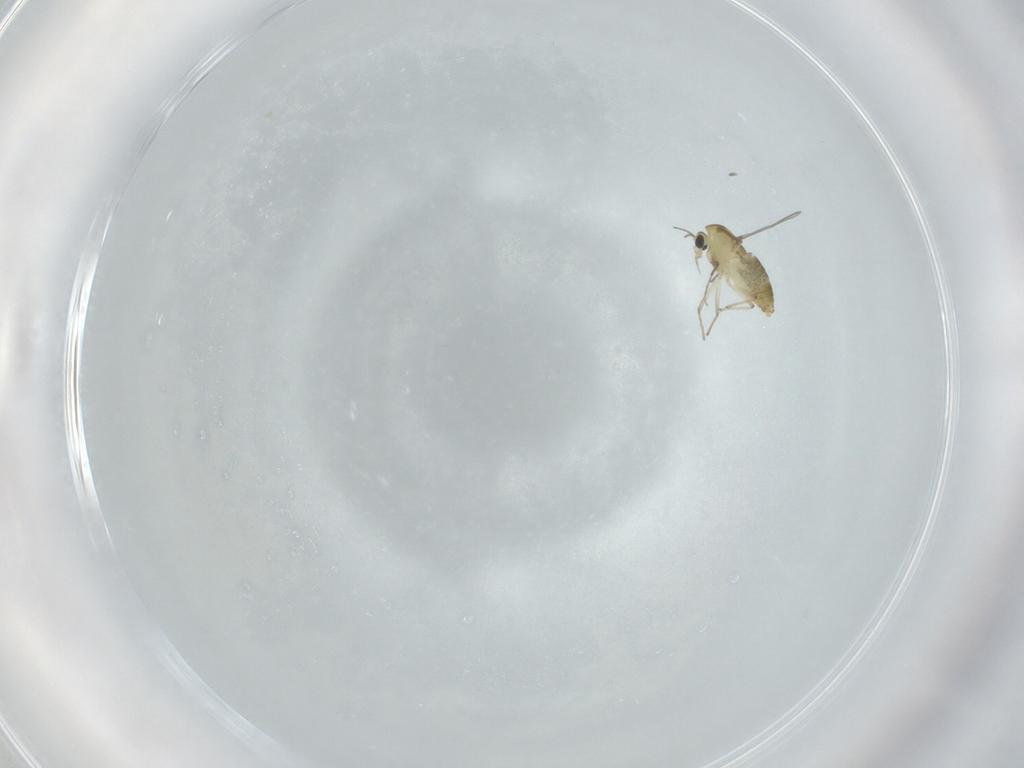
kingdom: Animalia
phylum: Arthropoda
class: Insecta
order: Diptera
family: Chironomidae
